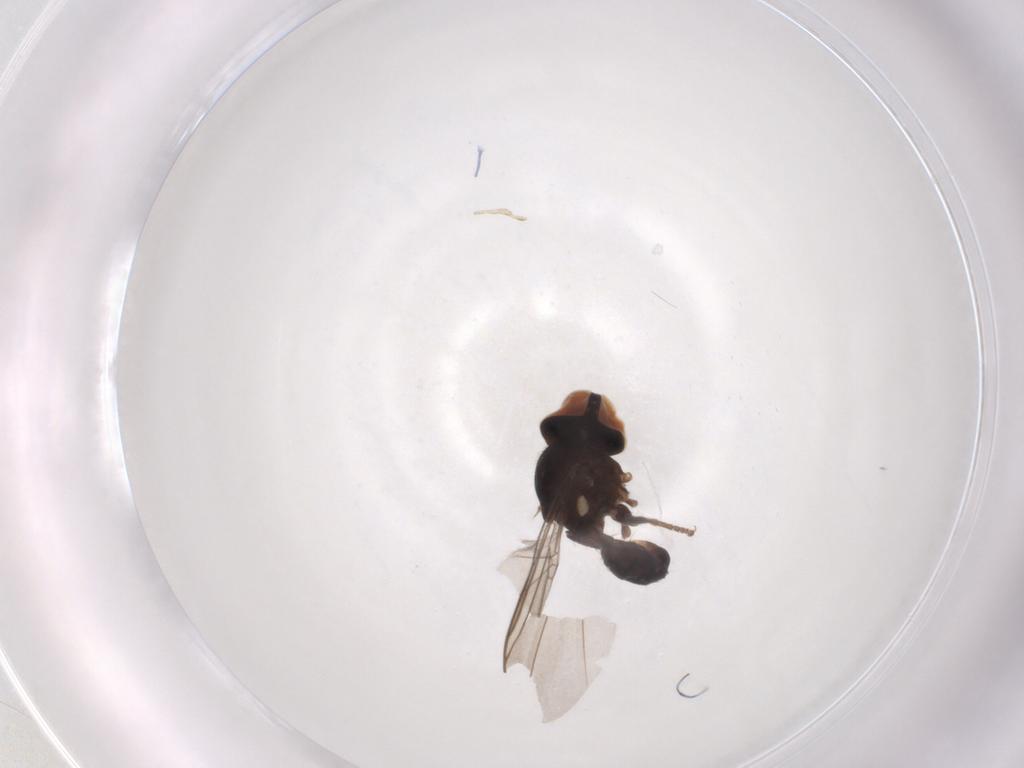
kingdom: Animalia
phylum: Arthropoda
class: Insecta
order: Diptera
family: Pipunculidae
